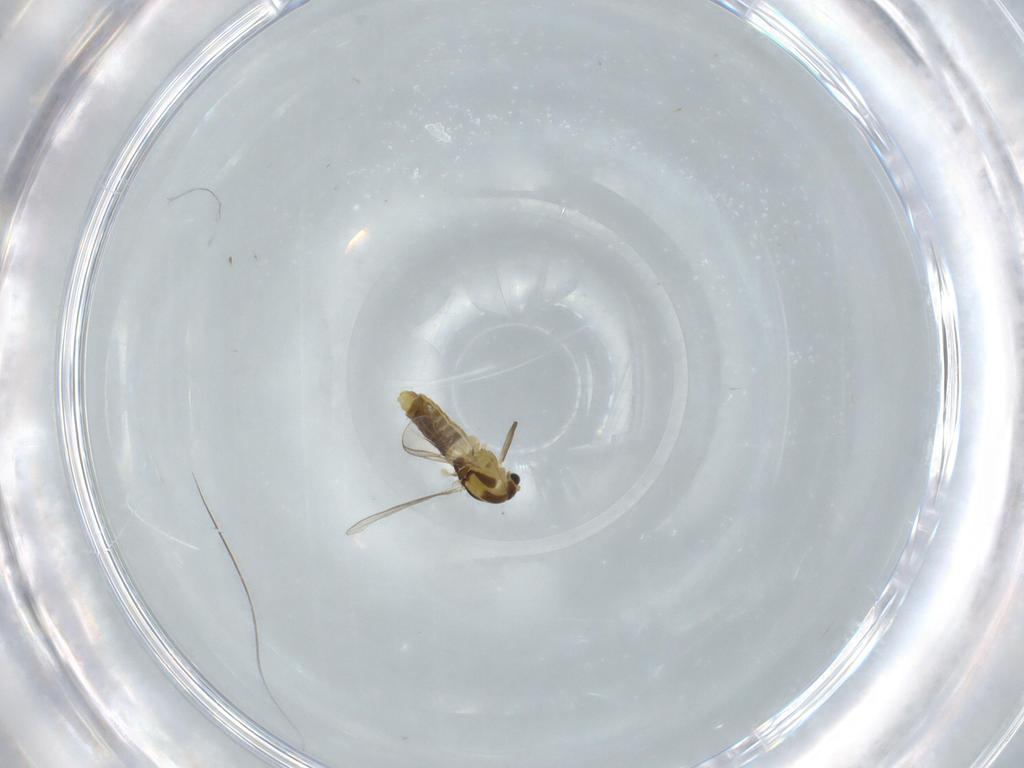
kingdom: Animalia
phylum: Arthropoda
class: Insecta
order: Diptera
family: Chironomidae
